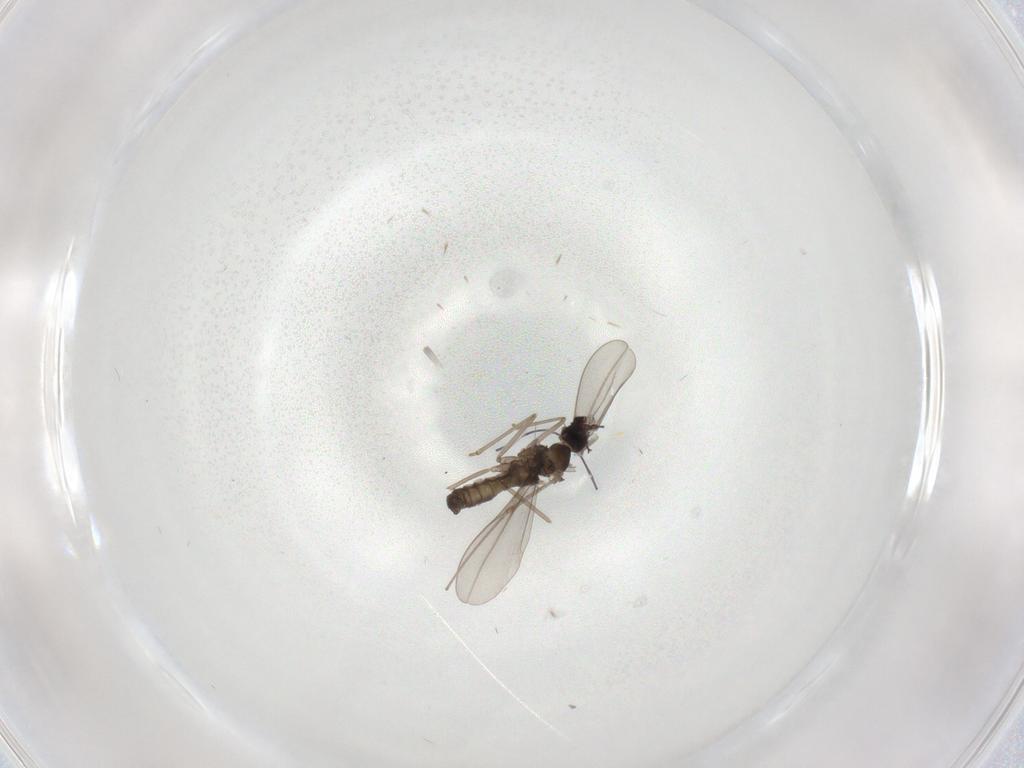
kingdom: Animalia
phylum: Arthropoda
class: Insecta
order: Diptera
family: Cecidomyiidae
